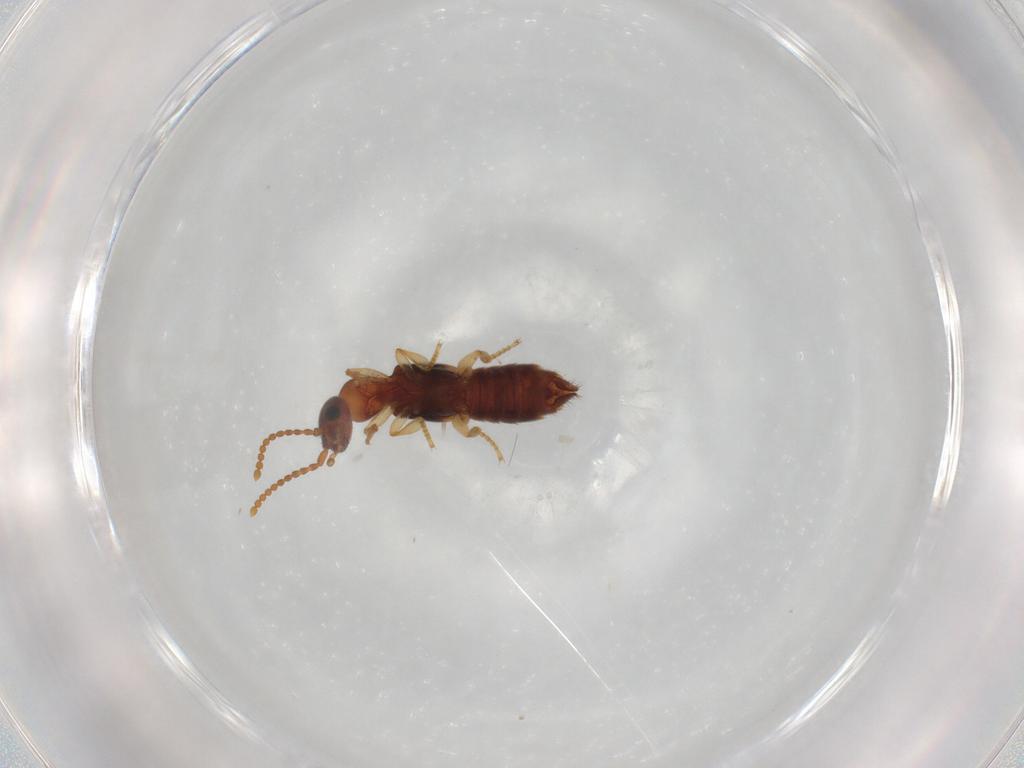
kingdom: Animalia
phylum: Arthropoda
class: Insecta
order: Coleoptera
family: Staphylinidae
